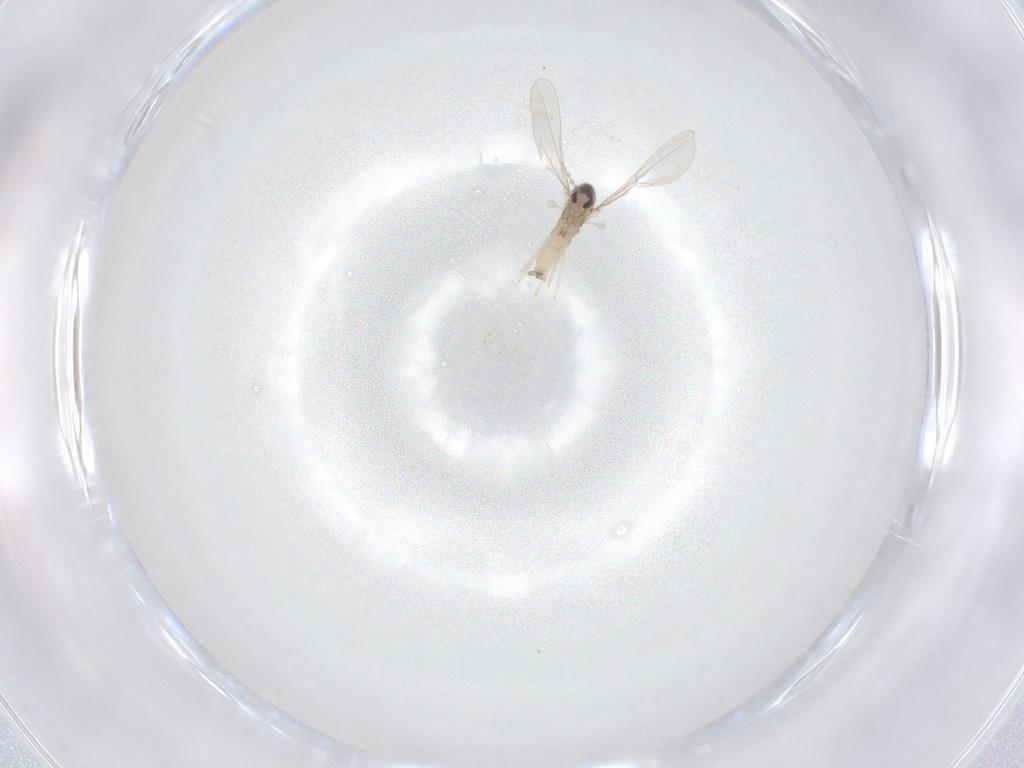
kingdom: Animalia
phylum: Arthropoda
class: Insecta
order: Diptera
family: Cecidomyiidae
